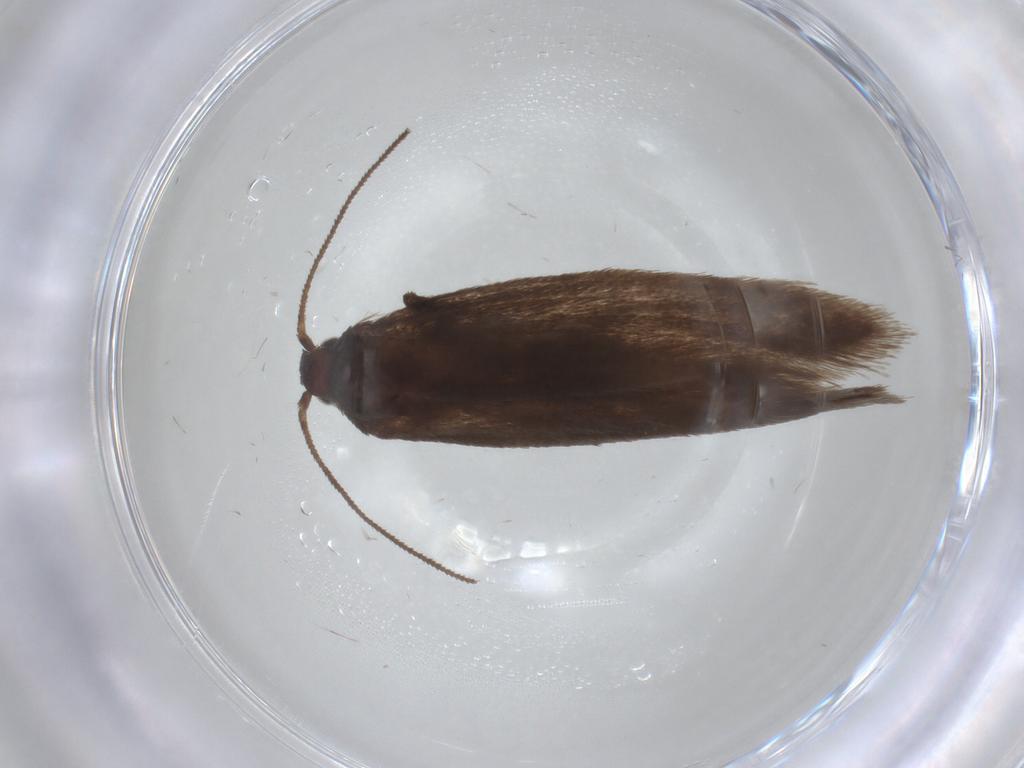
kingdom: Animalia
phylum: Arthropoda
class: Insecta
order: Lepidoptera
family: Limacodidae
